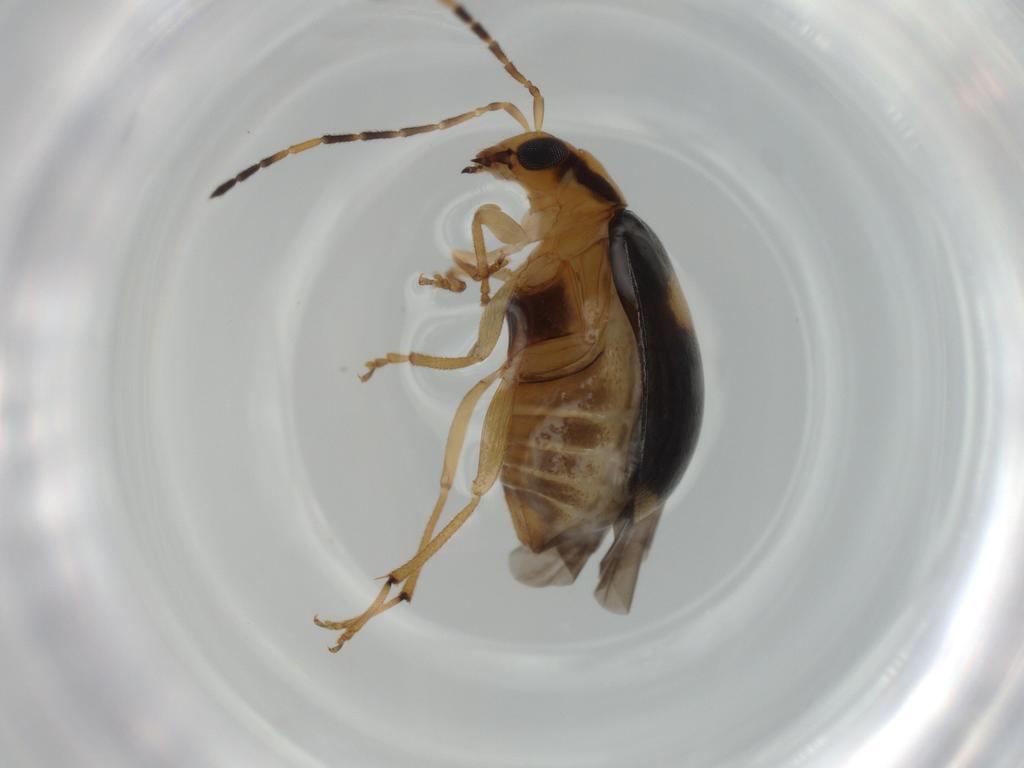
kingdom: Animalia
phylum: Arthropoda
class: Insecta
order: Coleoptera
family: Chrysomelidae
